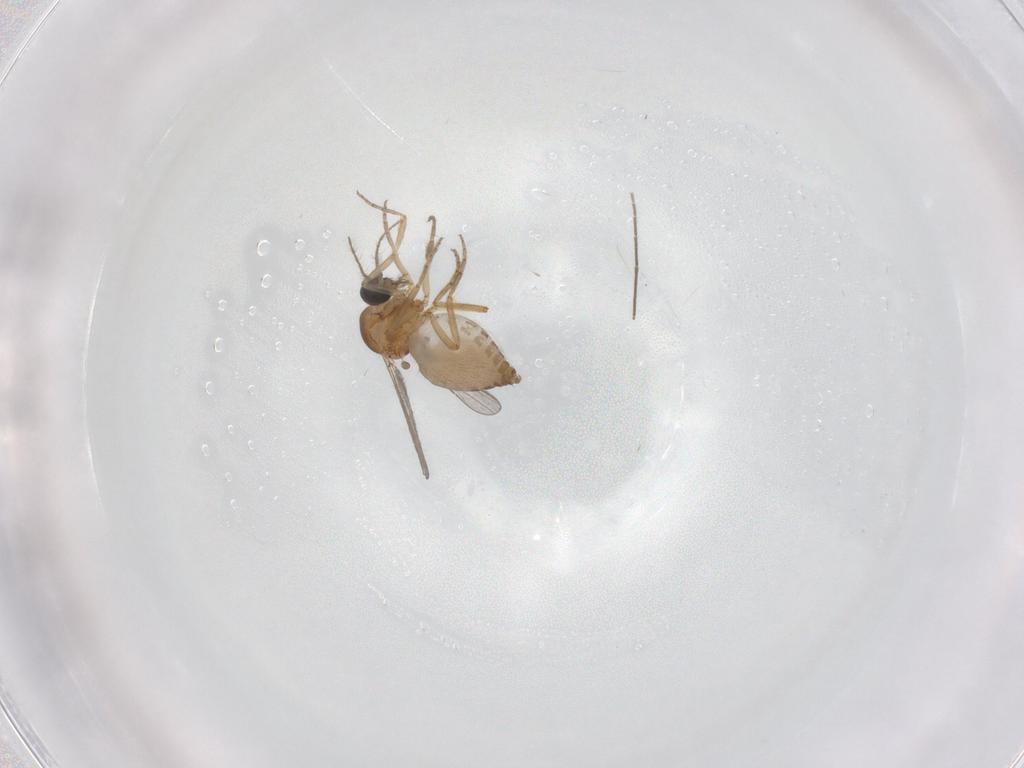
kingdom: Animalia
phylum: Arthropoda
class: Insecta
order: Diptera
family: Ceratopogonidae
